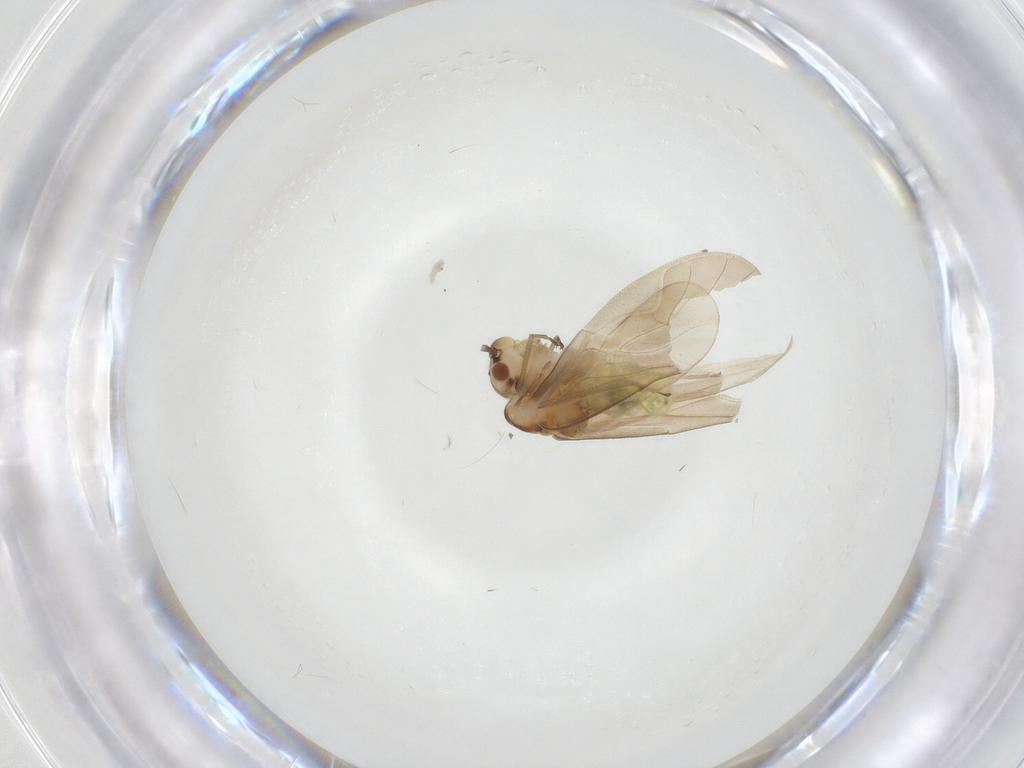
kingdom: Animalia
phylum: Arthropoda
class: Insecta
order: Psocodea
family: Caeciliusidae
